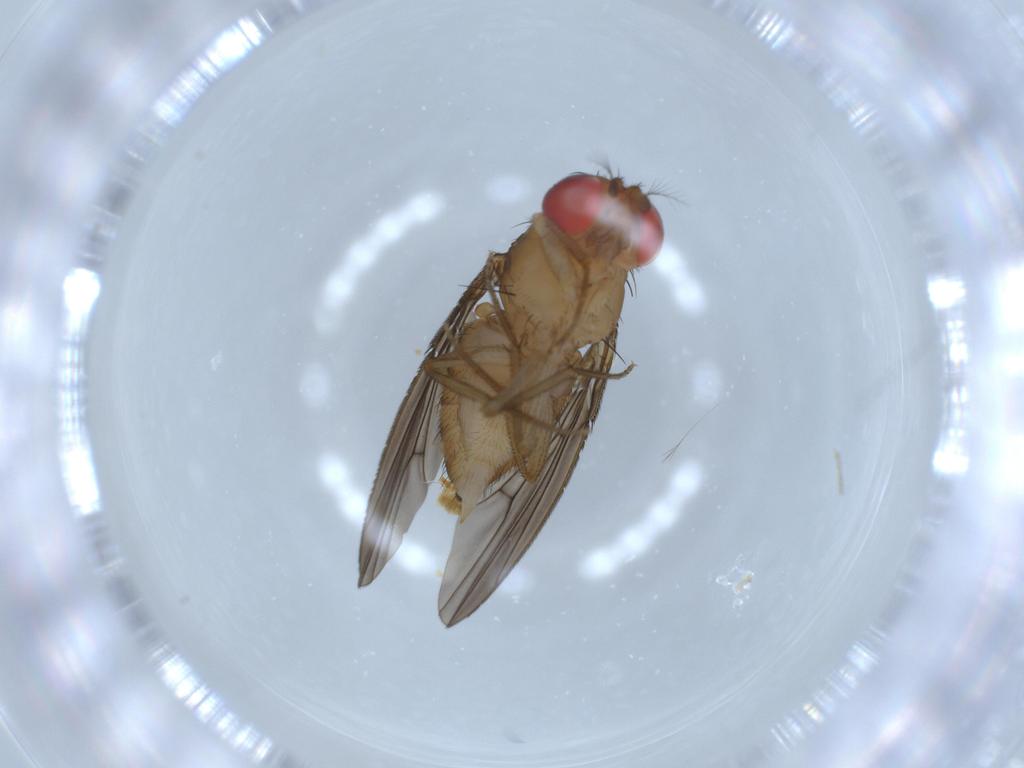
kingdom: Animalia
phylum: Arthropoda
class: Insecta
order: Diptera
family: Drosophilidae
